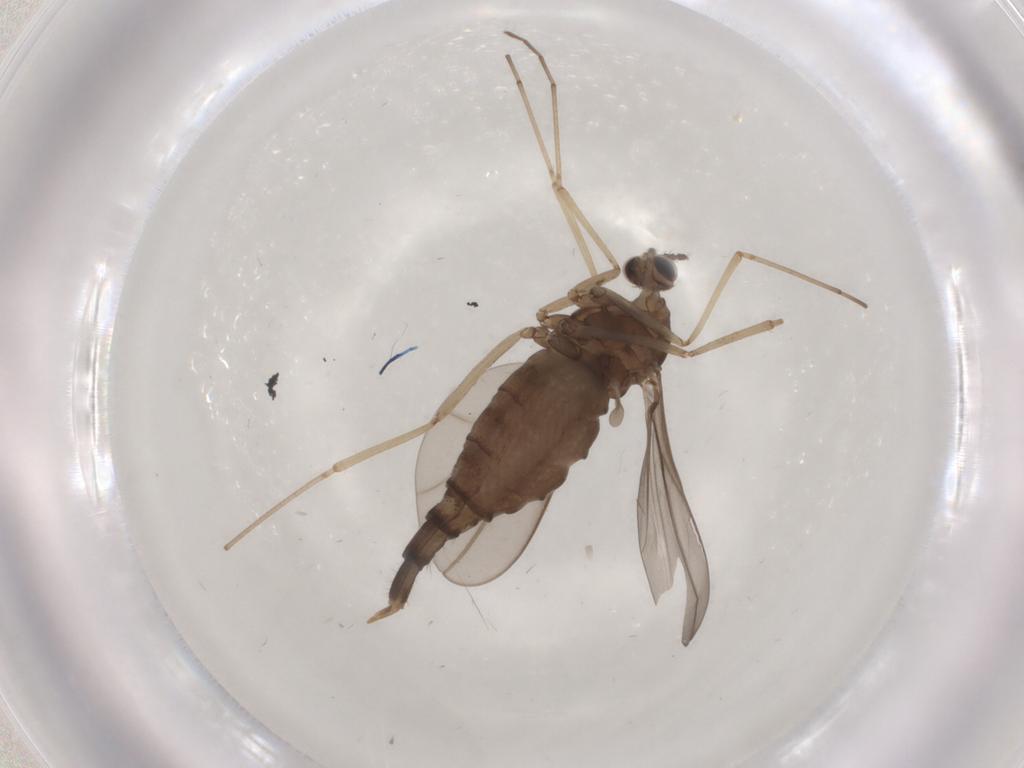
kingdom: Animalia
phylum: Arthropoda
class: Insecta
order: Diptera
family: Cecidomyiidae
